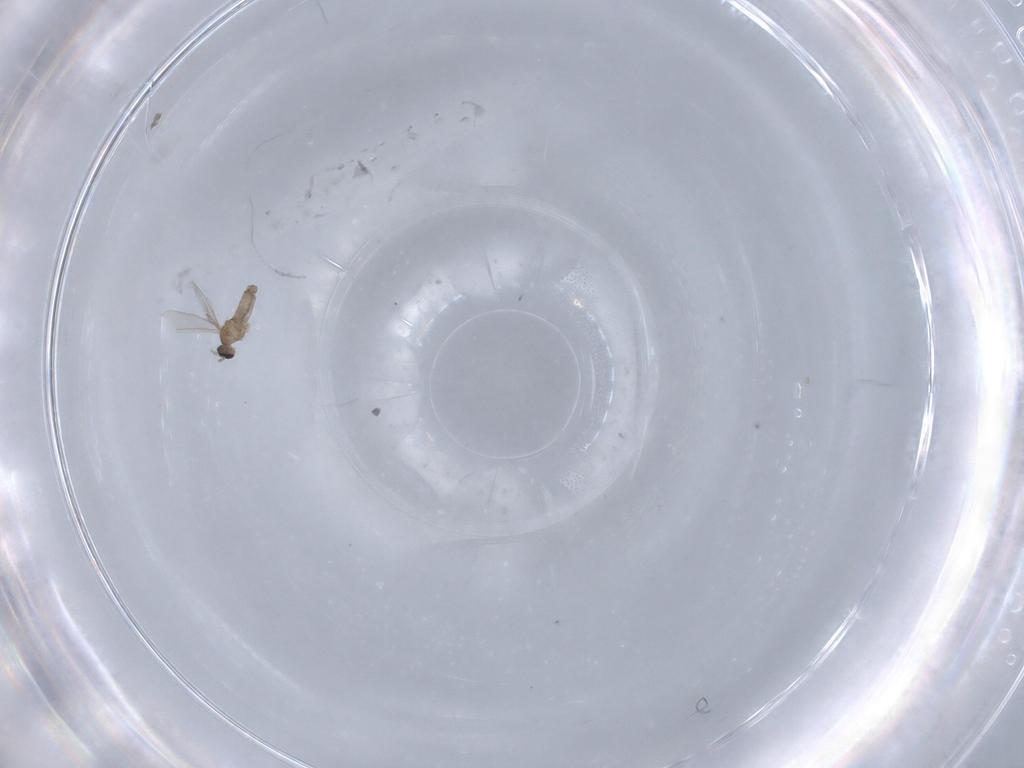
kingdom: Animalia
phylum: Arthropoda
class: Insecta
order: Diptera
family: Cecidomyiidae
